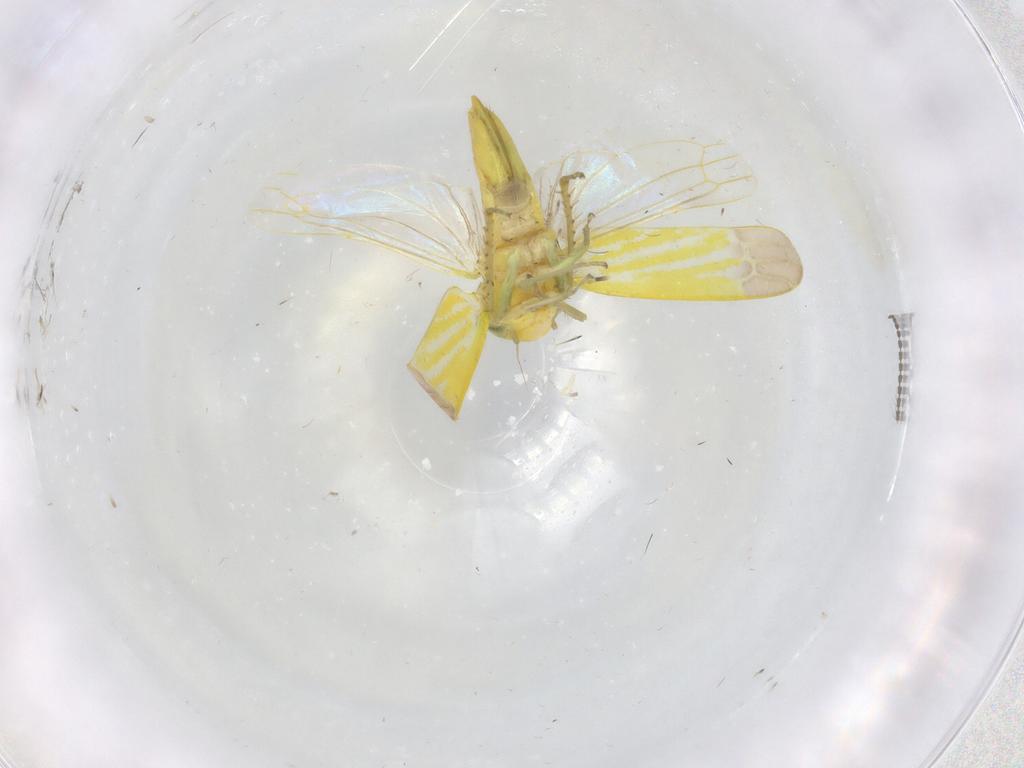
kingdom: Animalia
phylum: Arthropoda
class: Insecta
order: Hemiptera
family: Cicadellidae
